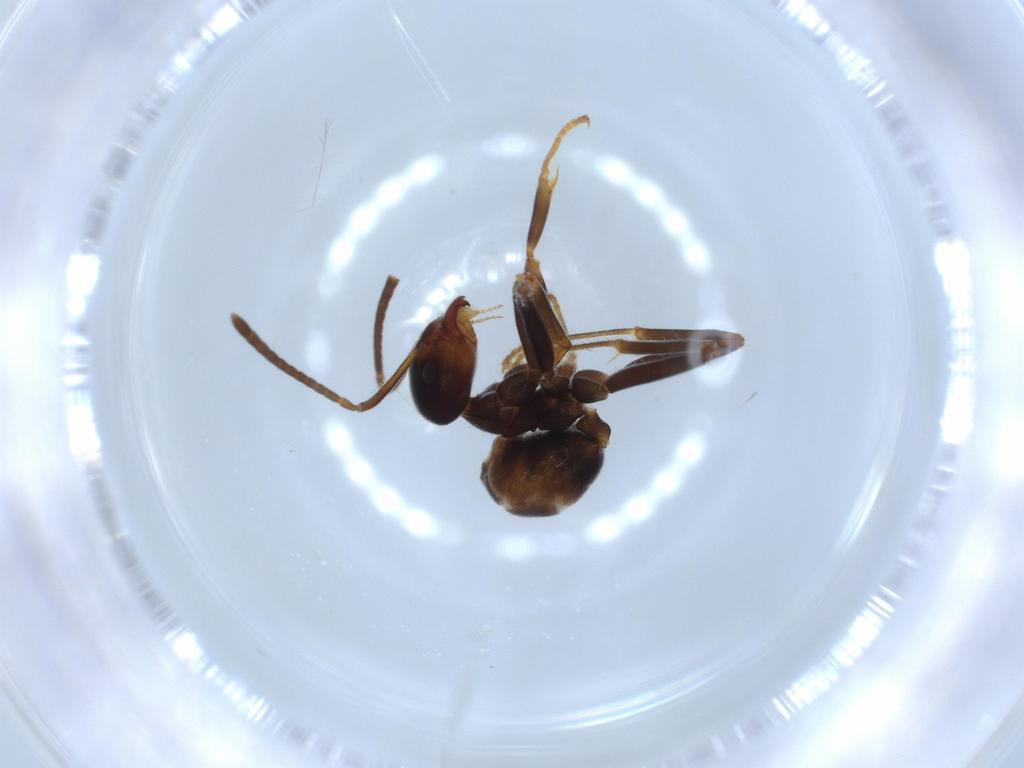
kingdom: Animalia
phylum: Arthropoda
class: Insecta
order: Hymenoptera
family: Formicidae
